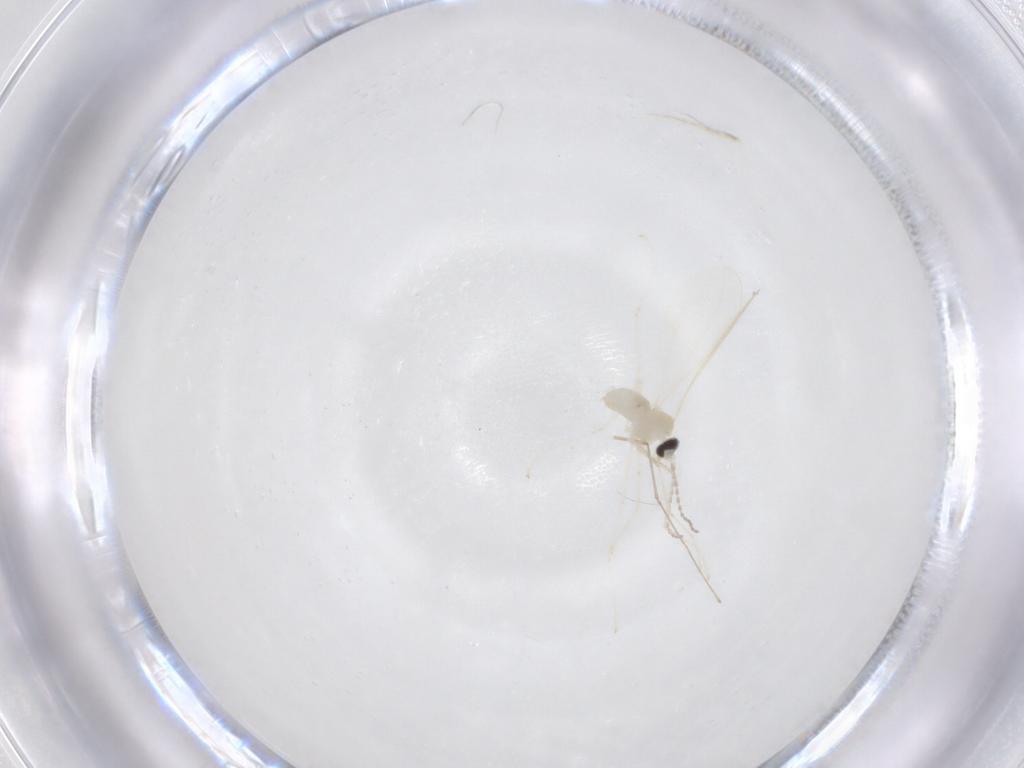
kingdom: Animalia
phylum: Arthropoda
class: Insecta
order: Diptera
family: Cecidomyiidae
